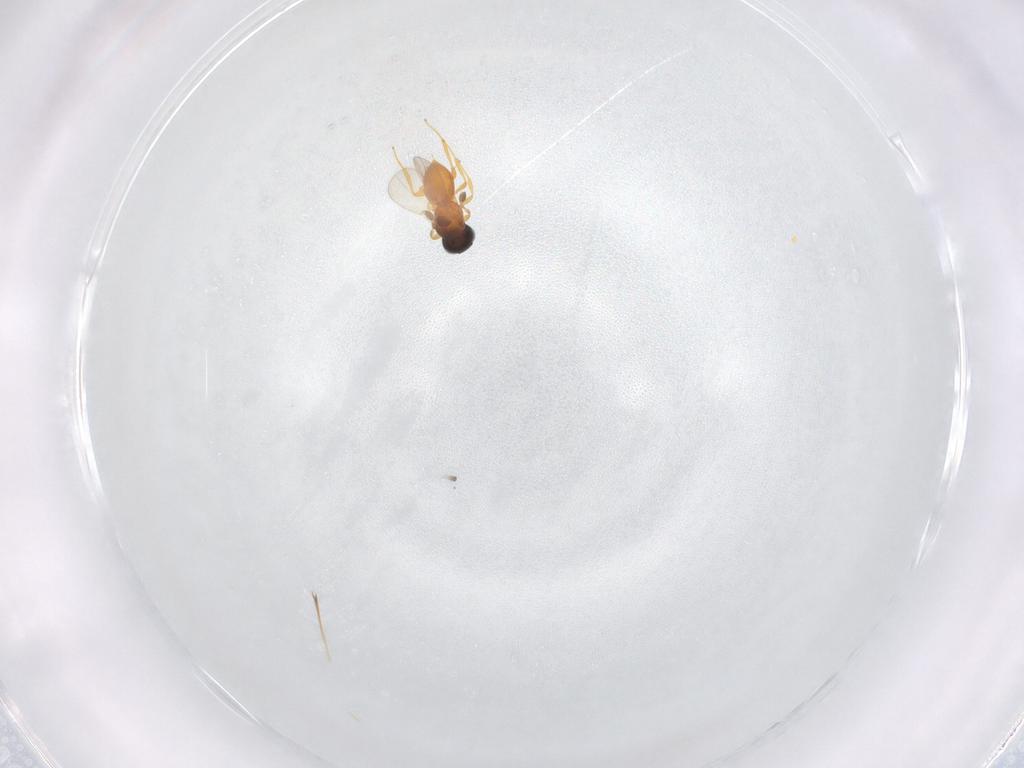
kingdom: Animalia
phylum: Arthropoda
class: Insecta
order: Hymenoptera
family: Platygastridae
